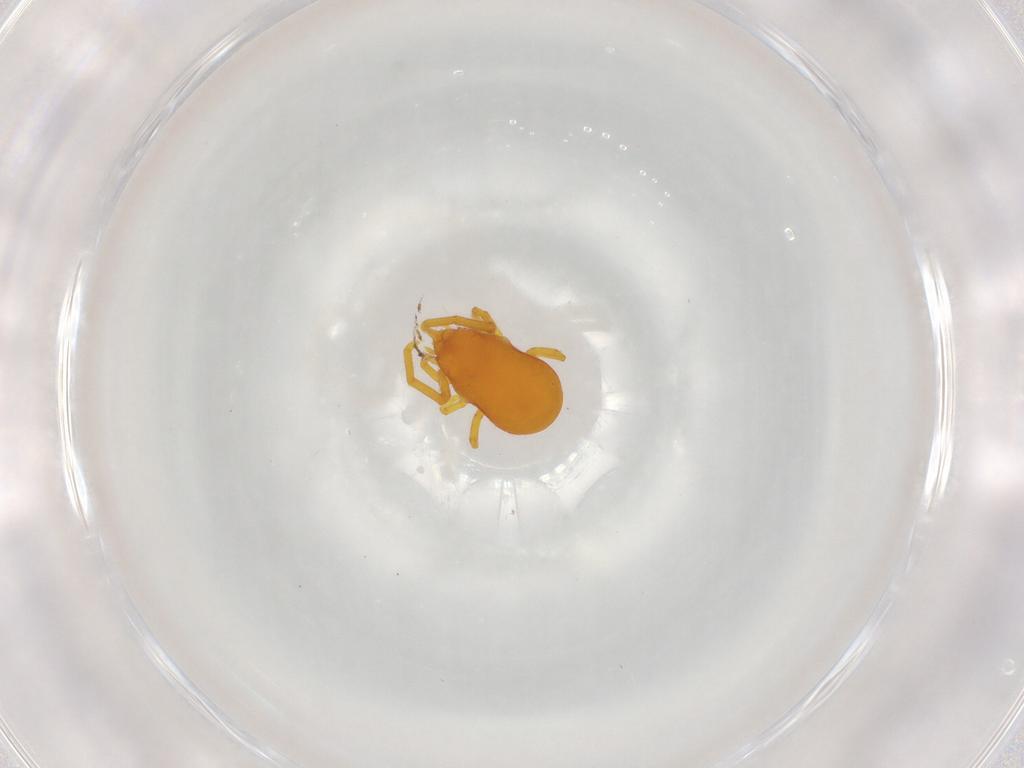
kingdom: Animalia
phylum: Arthropoda
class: Arachnida
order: Trombidiformes
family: Labidostommidae
